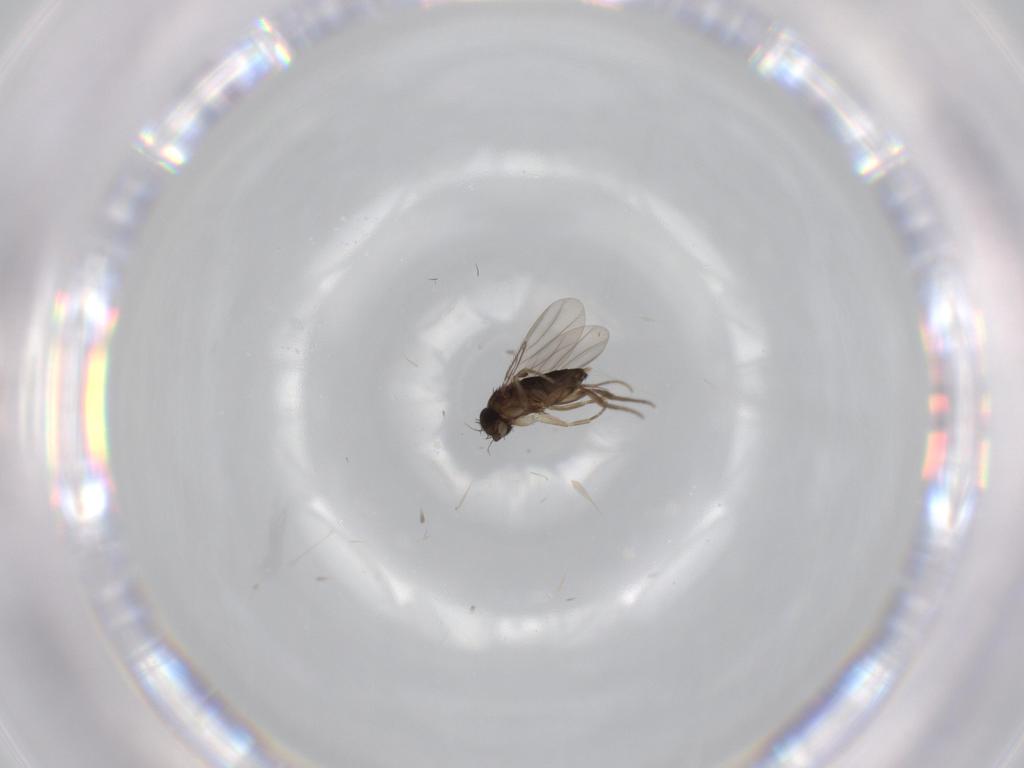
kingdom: Animalia
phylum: Arthropoda
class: Insecta
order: Diptera
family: Phoridae
